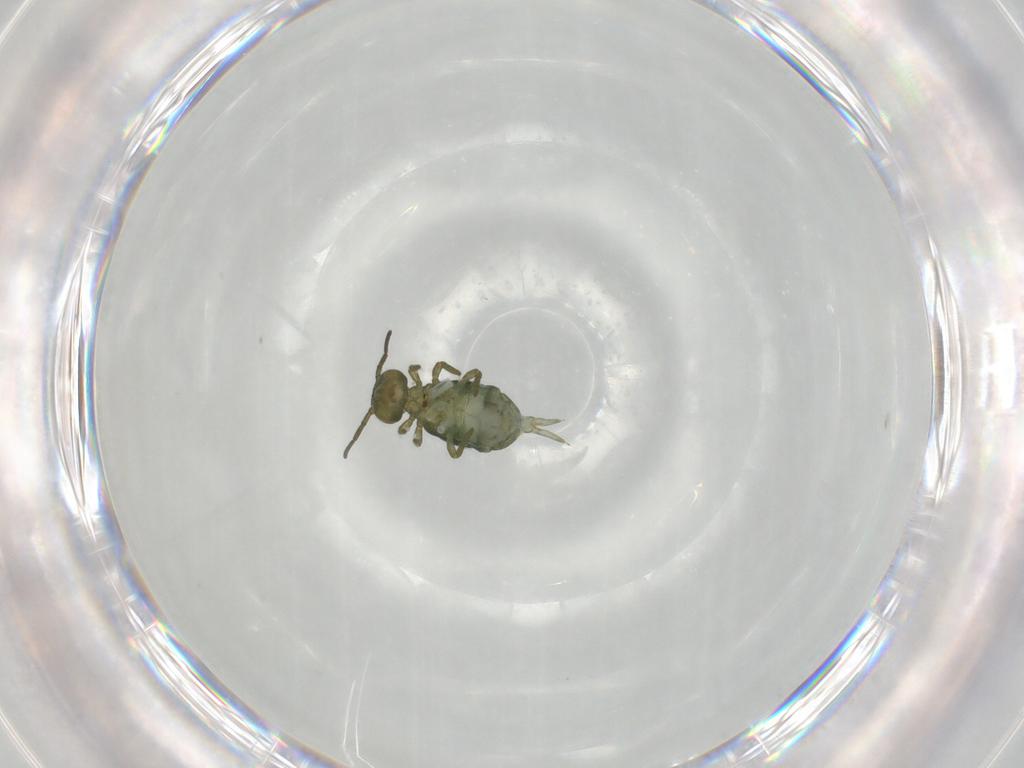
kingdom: Animalia
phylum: Arthropoda
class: Collembola
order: Symphypleona
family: Sminthuridae
